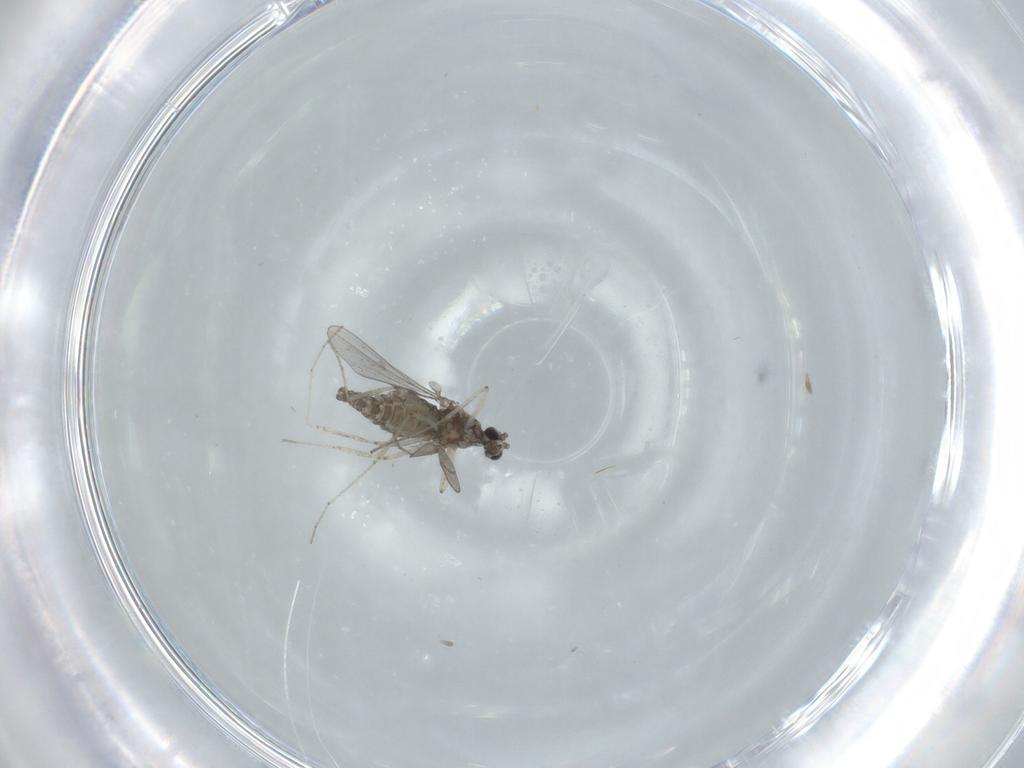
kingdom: Animalia
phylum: Arthropoda
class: Insecta
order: Diptera
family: Cecidomyiidae
